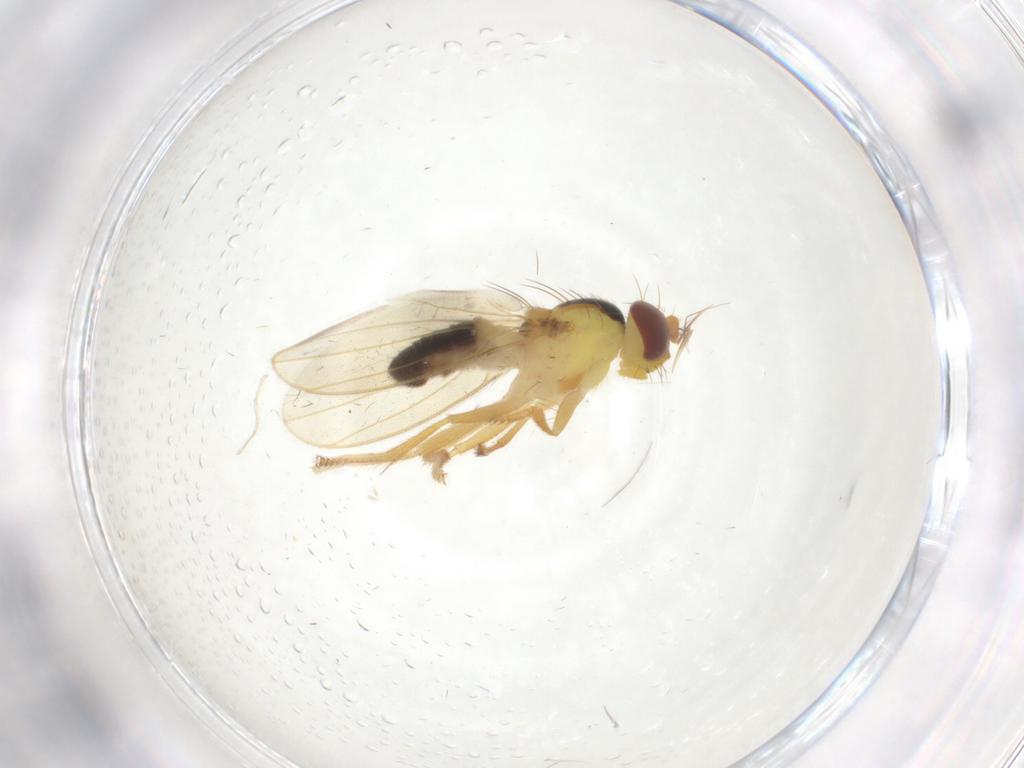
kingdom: Animalia
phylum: Arthropoda
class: Insecta
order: Diptera
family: Periscelididae
